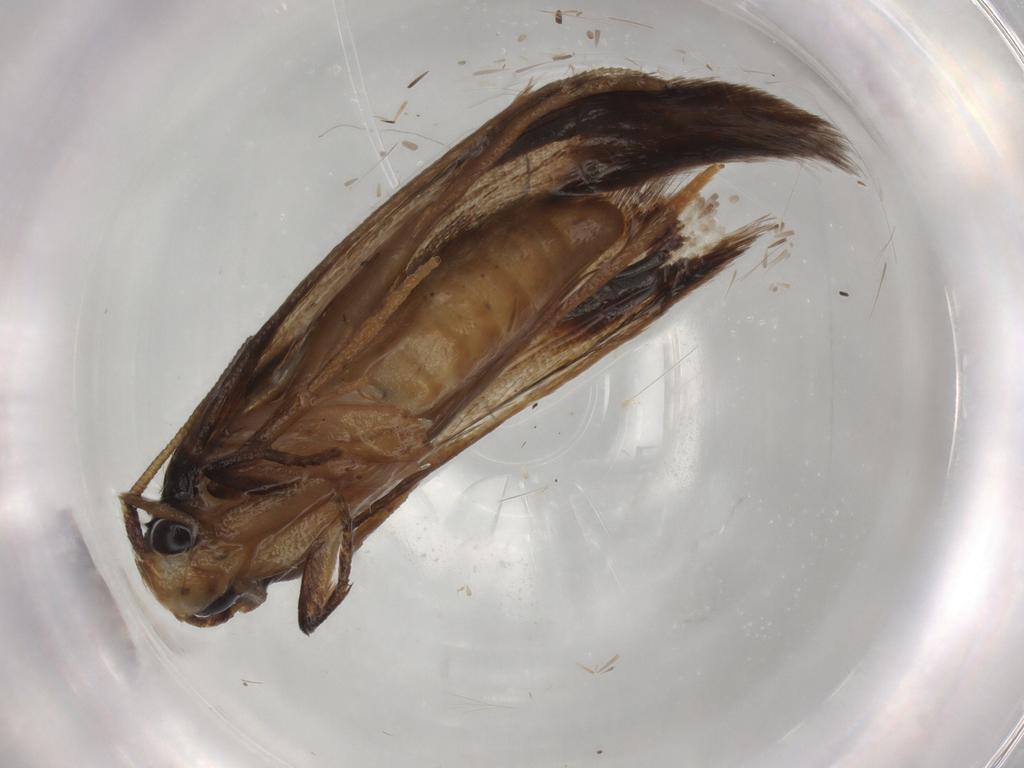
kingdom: Animalia
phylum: Arthropoda
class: Insecta
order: Lepidoptera
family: Tineidae
